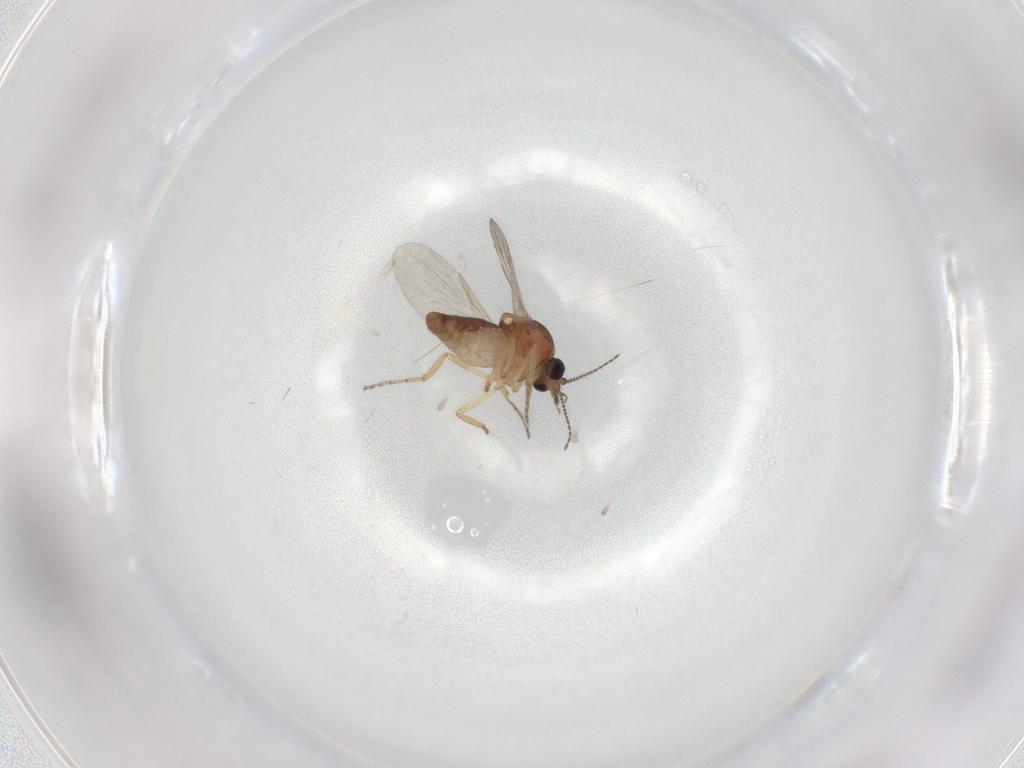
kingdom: Animalia
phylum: Arthropoda
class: Insecta
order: Diptera
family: Ceratopogonidae
